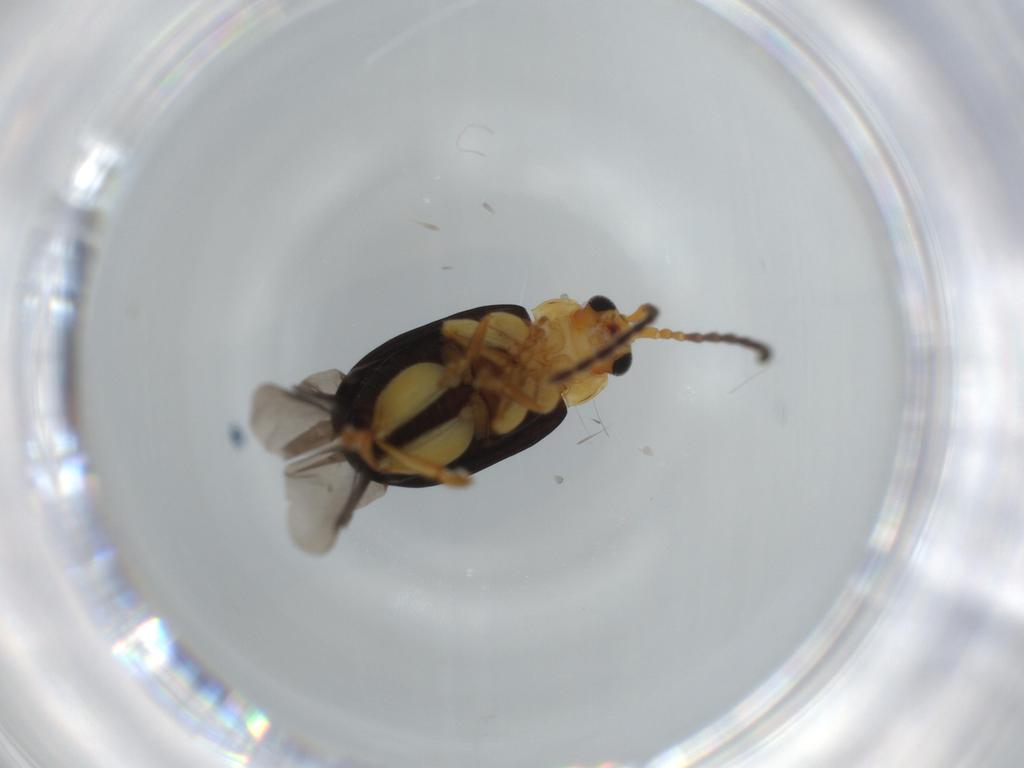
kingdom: Animalia
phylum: Arthropoda
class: Insecta
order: Coleoptera
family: Chrysomelidae
